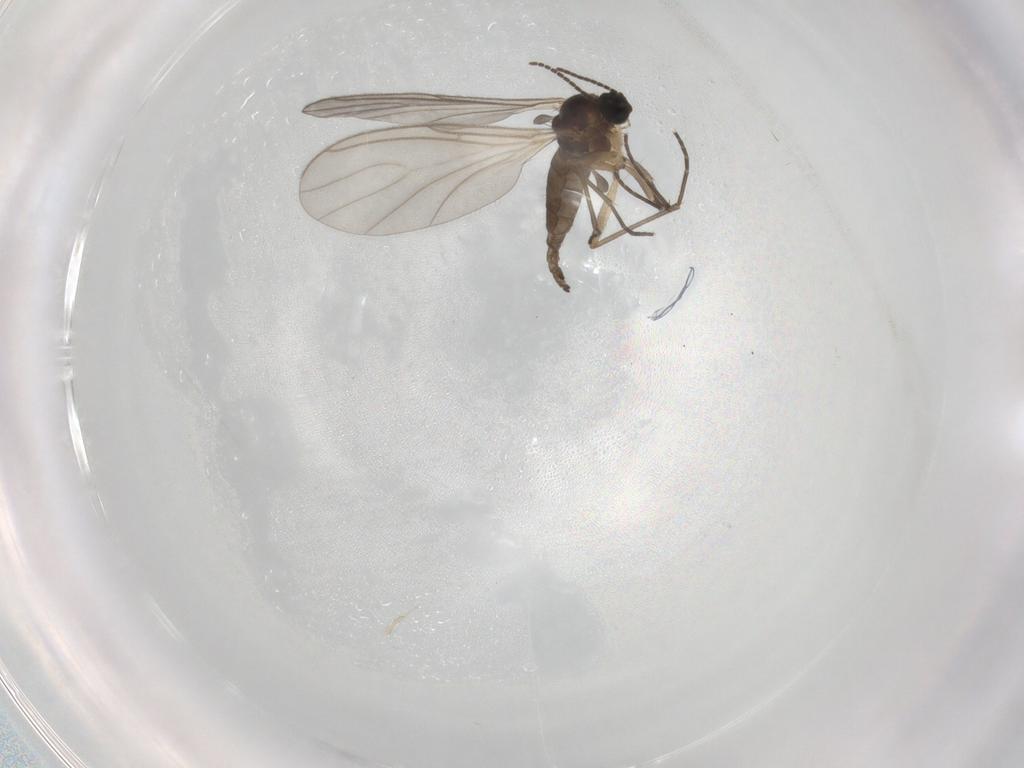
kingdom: Animalia
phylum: Arthropoda
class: Insecta
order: Diptera
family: Sciaridae
